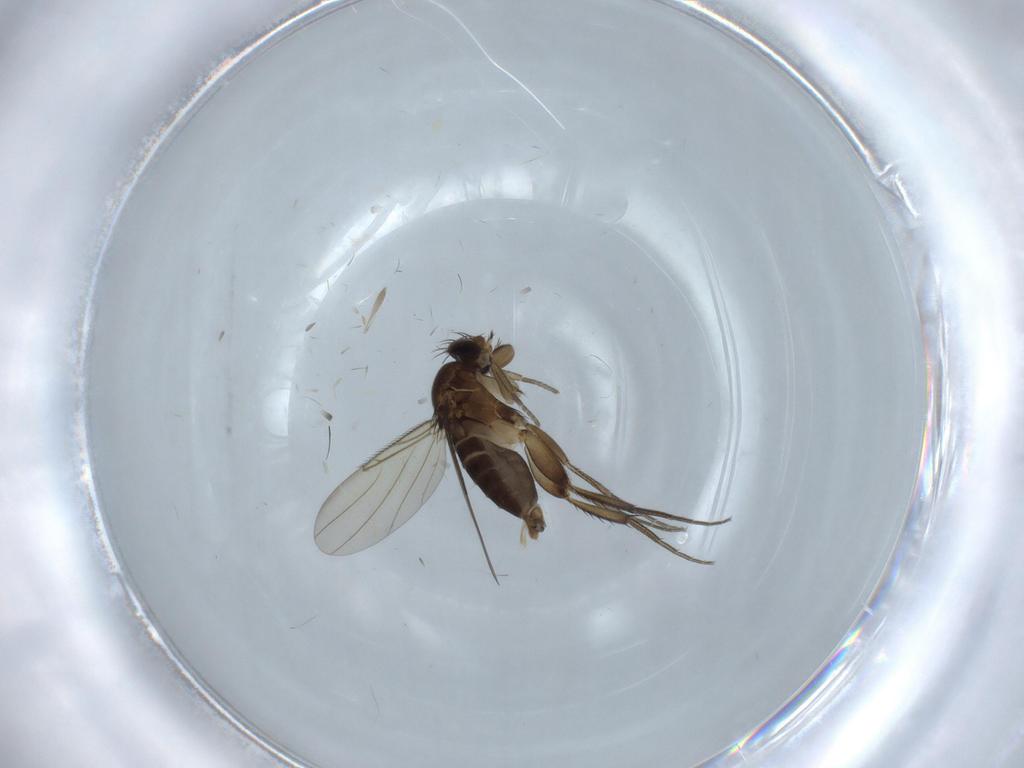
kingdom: Animalia
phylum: Arthropoda
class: Insecta
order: Diptera
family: Phoridae
